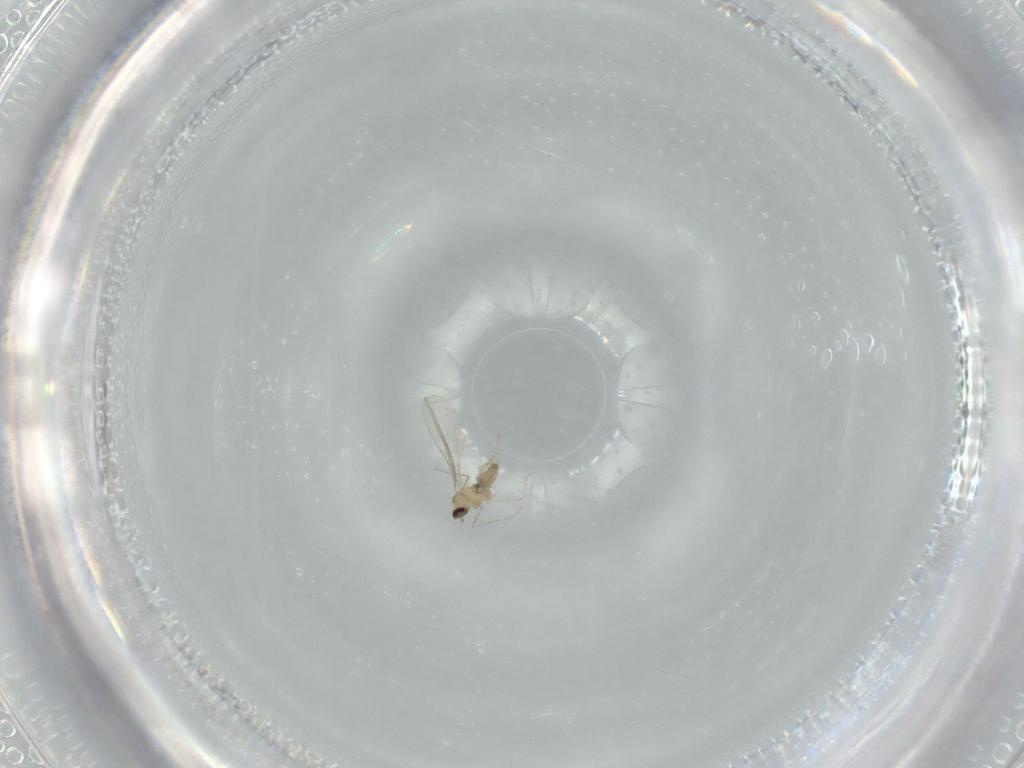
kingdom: Animalia
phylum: Arthropoda
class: Insecta
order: Diptera
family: Cecidomyiidae
